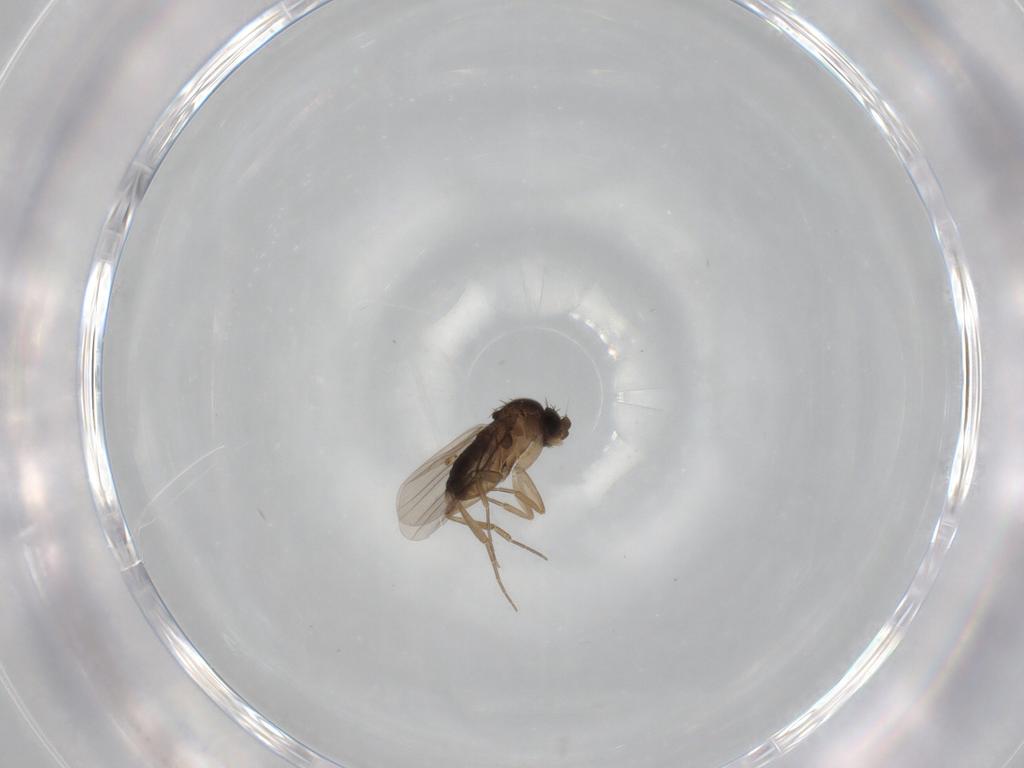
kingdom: Animalia
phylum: Arthropoda
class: Insecta
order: Diptera
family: Phoridae
